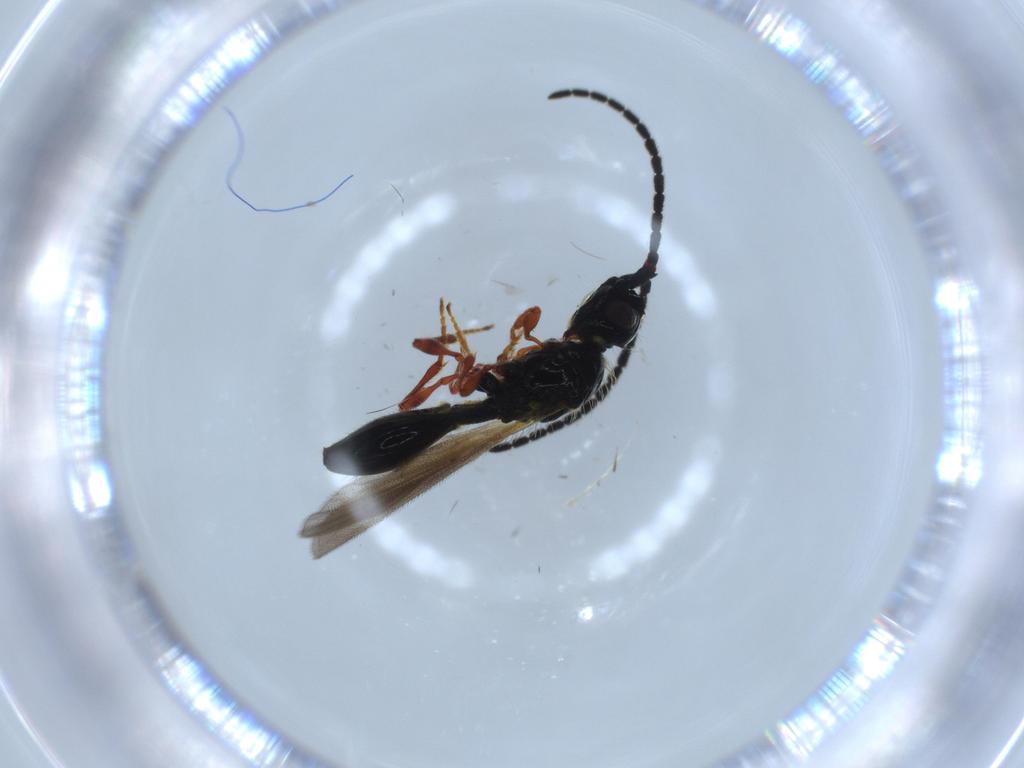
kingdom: Animalia
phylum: Arthropoda
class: Insecta
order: Hymenoptera
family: Diapriidae
